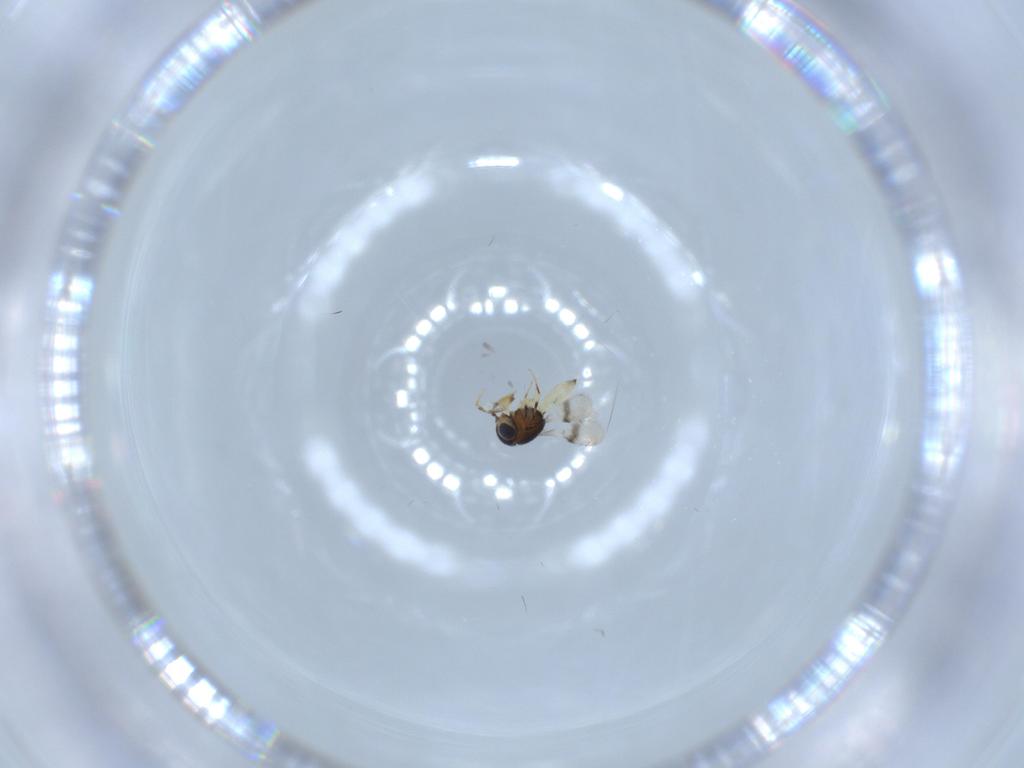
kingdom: Animalia
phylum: Arthropoda
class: Insecta
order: Hymenoptera
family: Scelionidae
